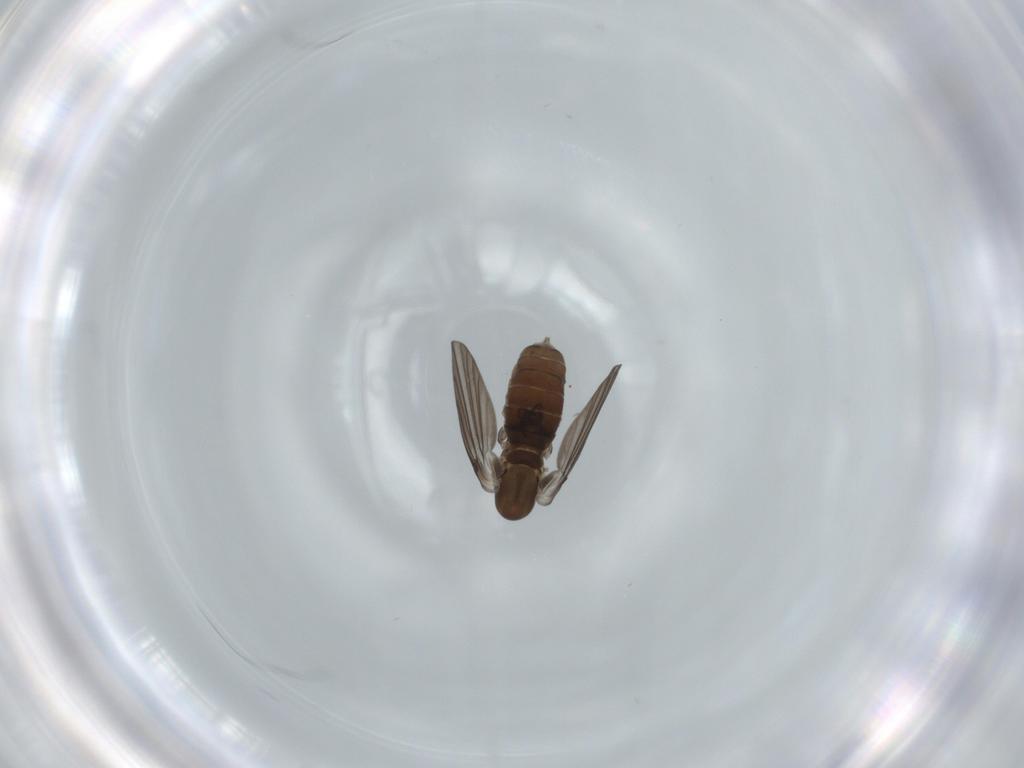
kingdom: Animalia
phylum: Arthropoda
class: Insecta
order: Diptera
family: Psychodidae
